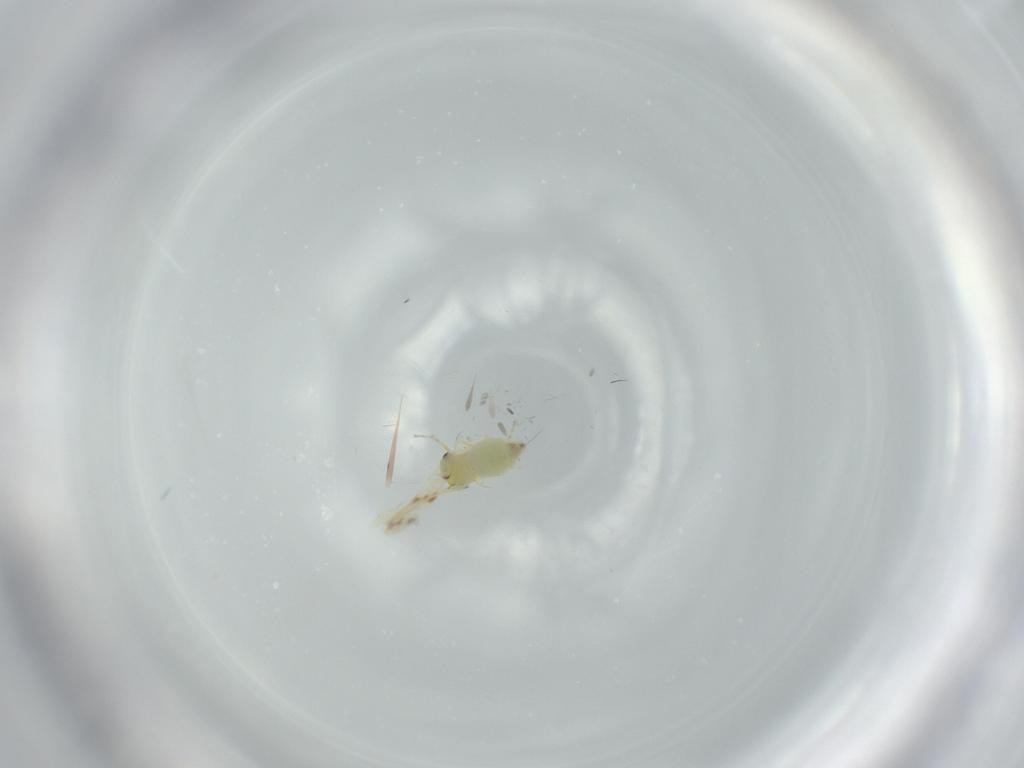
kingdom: Animalia
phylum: Arthropoda
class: Insecta
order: Hemiptera
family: Aleyrodidae
